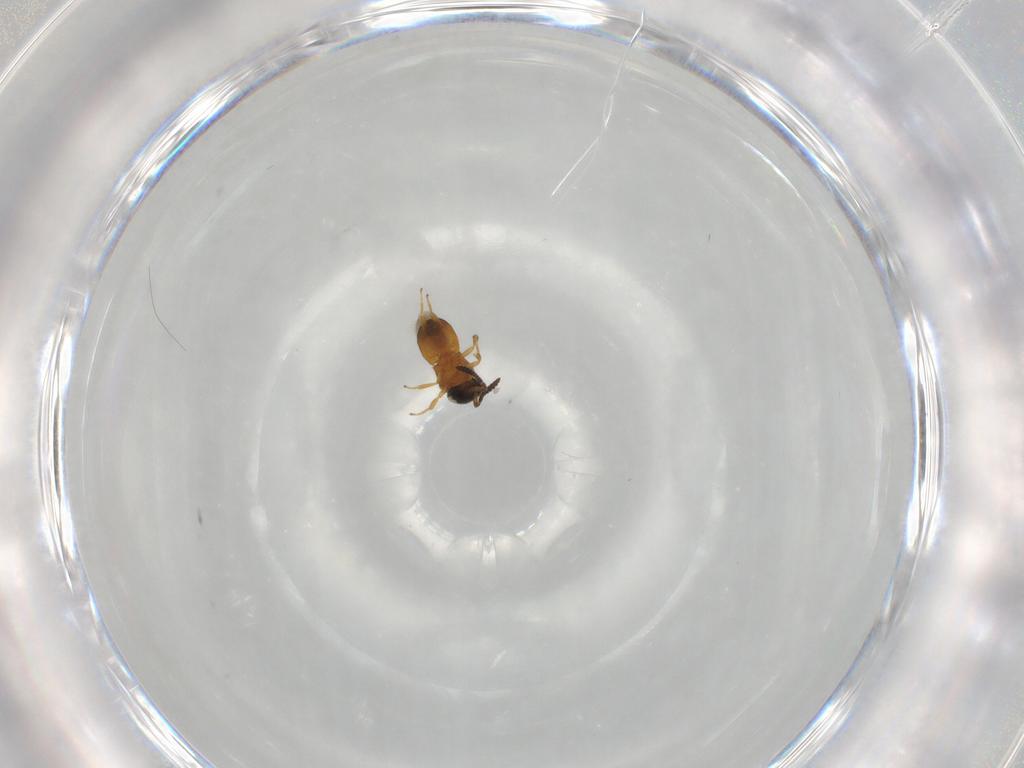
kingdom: Animalia
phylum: Arthropoda
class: Insecta
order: Hymenoptera
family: Scelionidae
